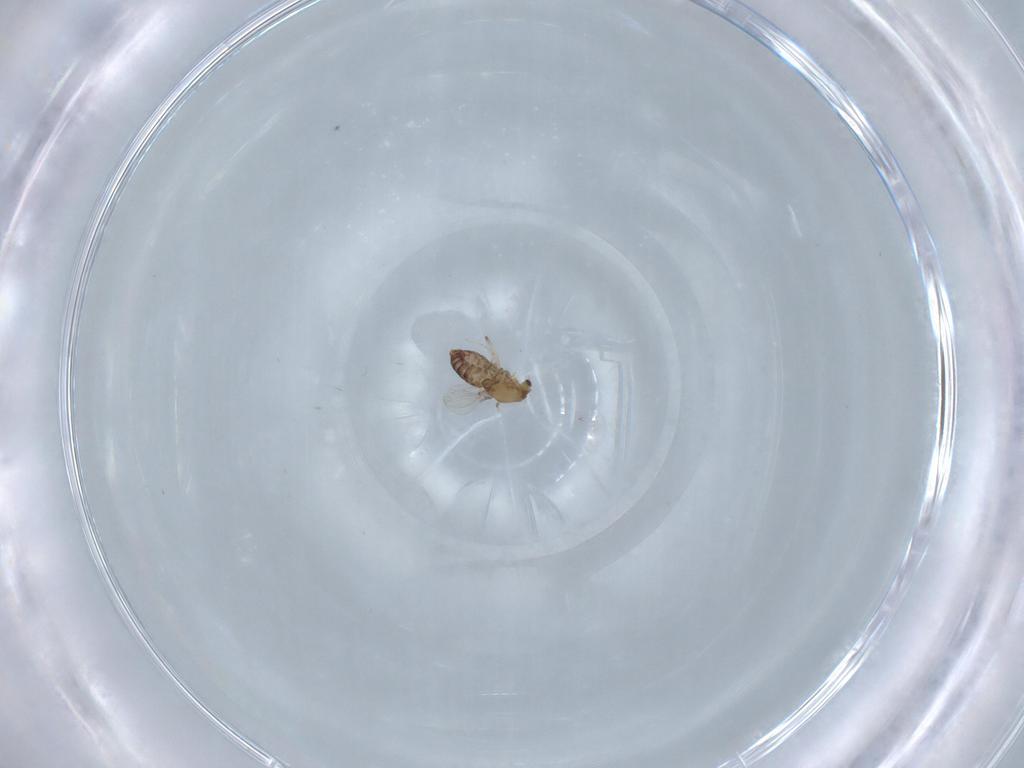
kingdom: Animalia
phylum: Arthropoda
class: Insecta
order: Diptera
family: Chironomidae
